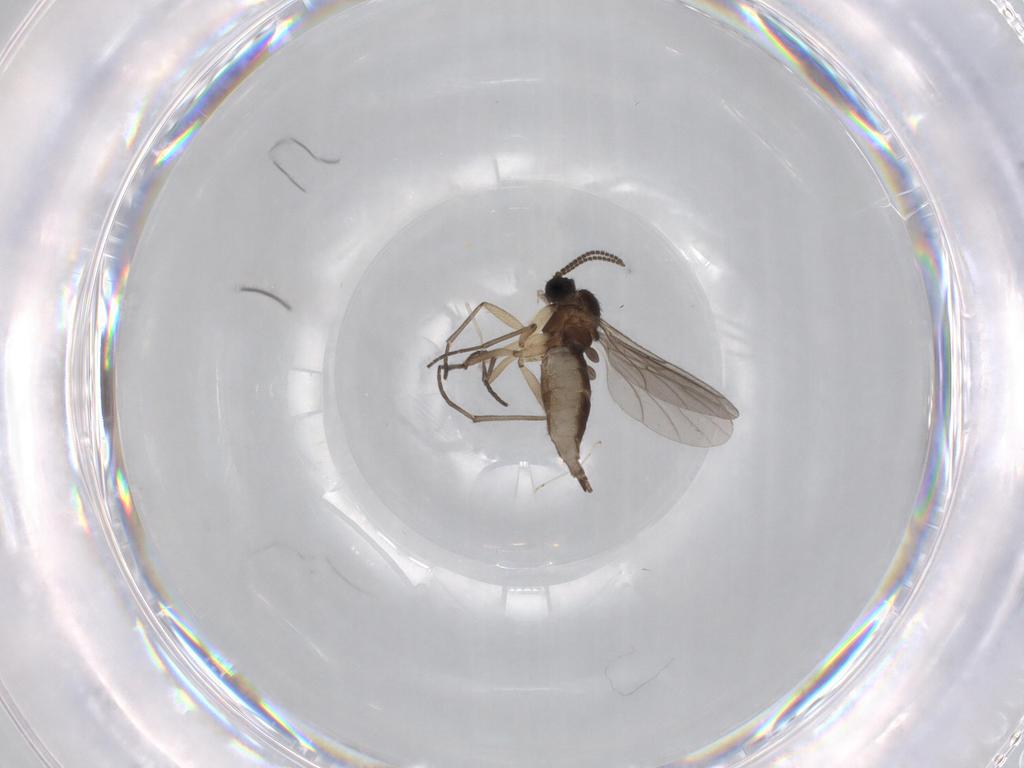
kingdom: Animalia
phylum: Arthropoda
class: Insecta
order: Diptera
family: Sciaridae
